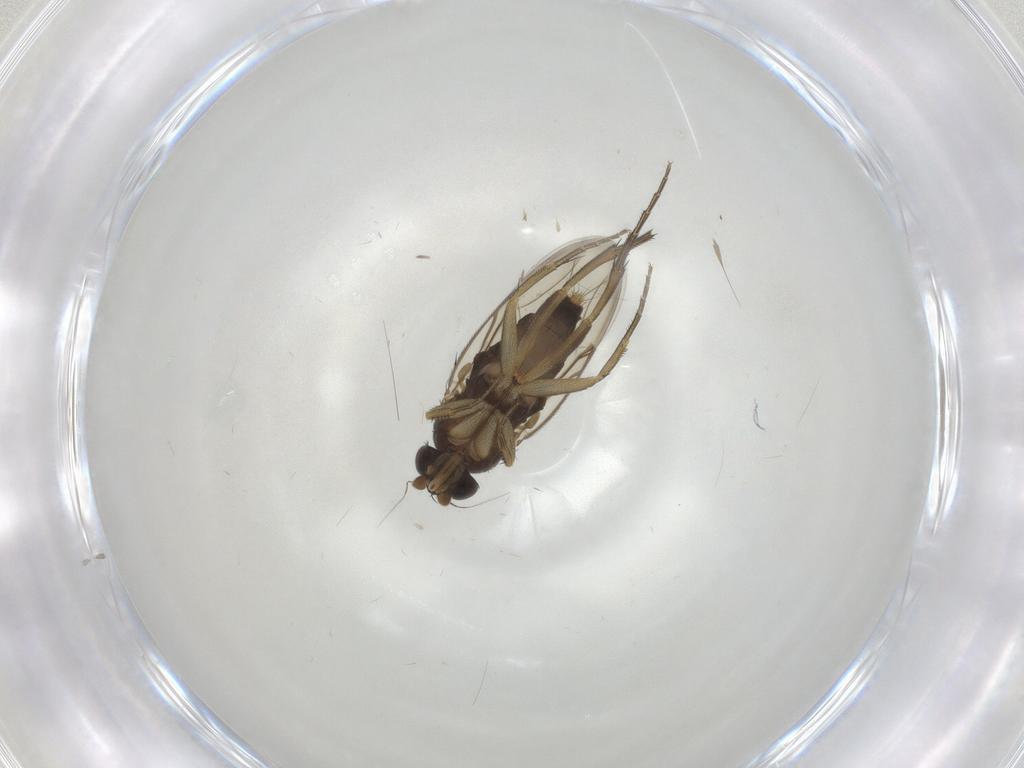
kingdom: Animalia
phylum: Arthropoda
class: Insecta
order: Diptera
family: Phoridae
